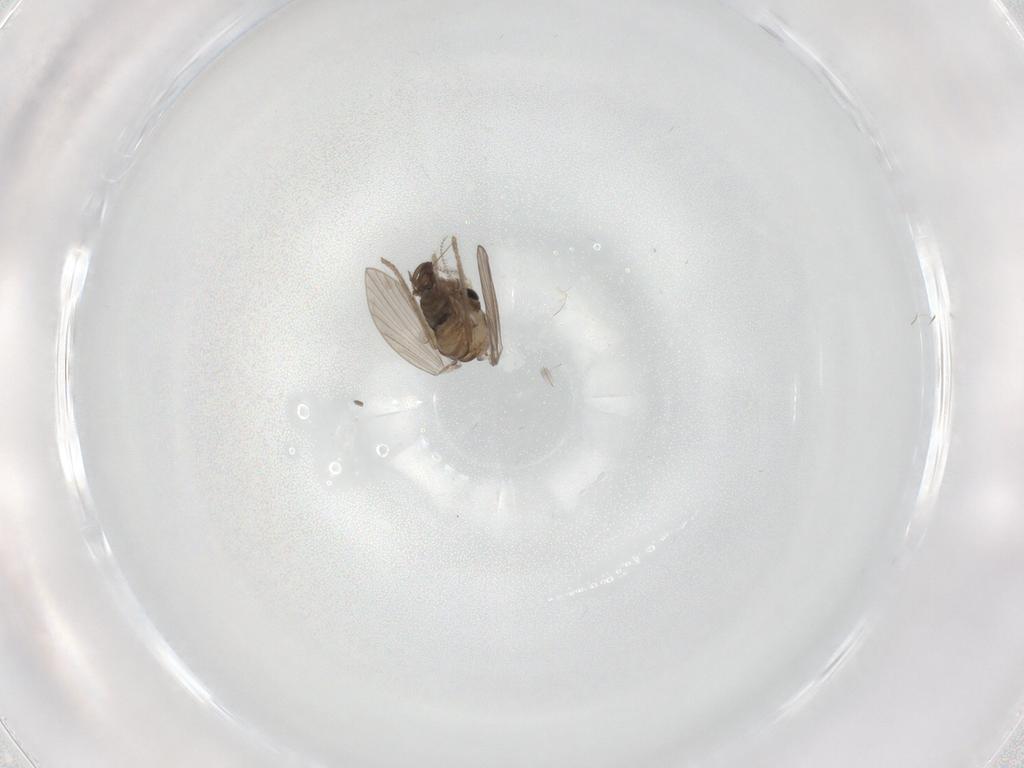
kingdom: Animalia
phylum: Arthropoda
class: Insecta
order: Diptera
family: Psychodidae
